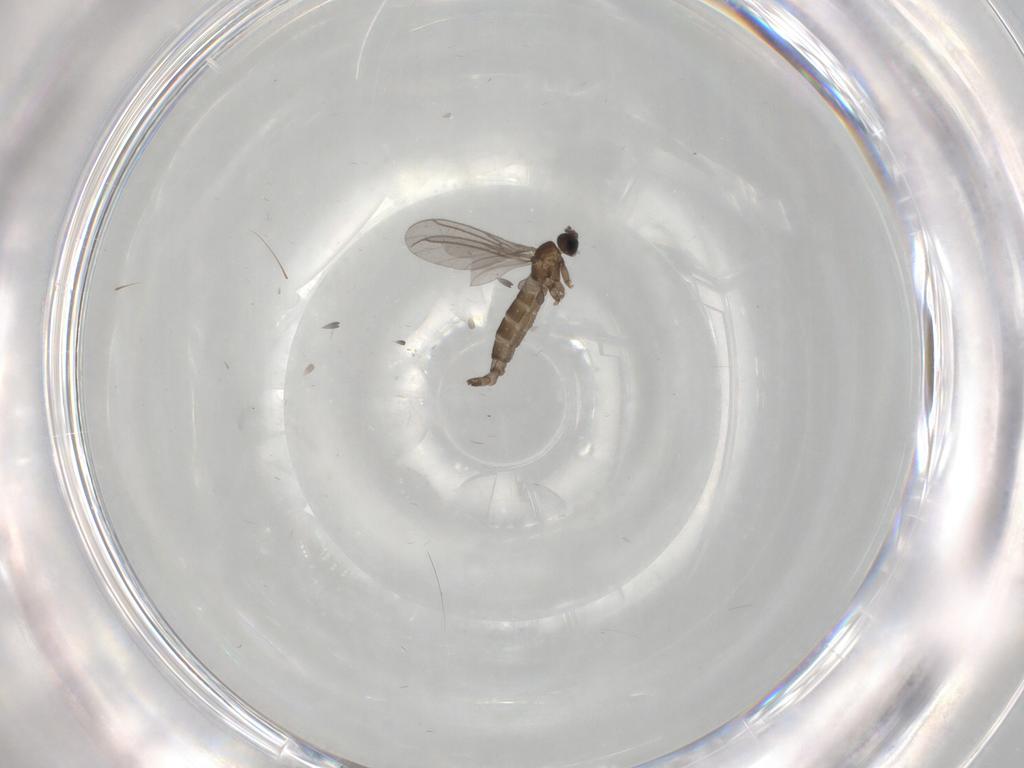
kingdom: Animalia
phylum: Arthropoda
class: Insecta
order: Diptera
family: Sciaridae
